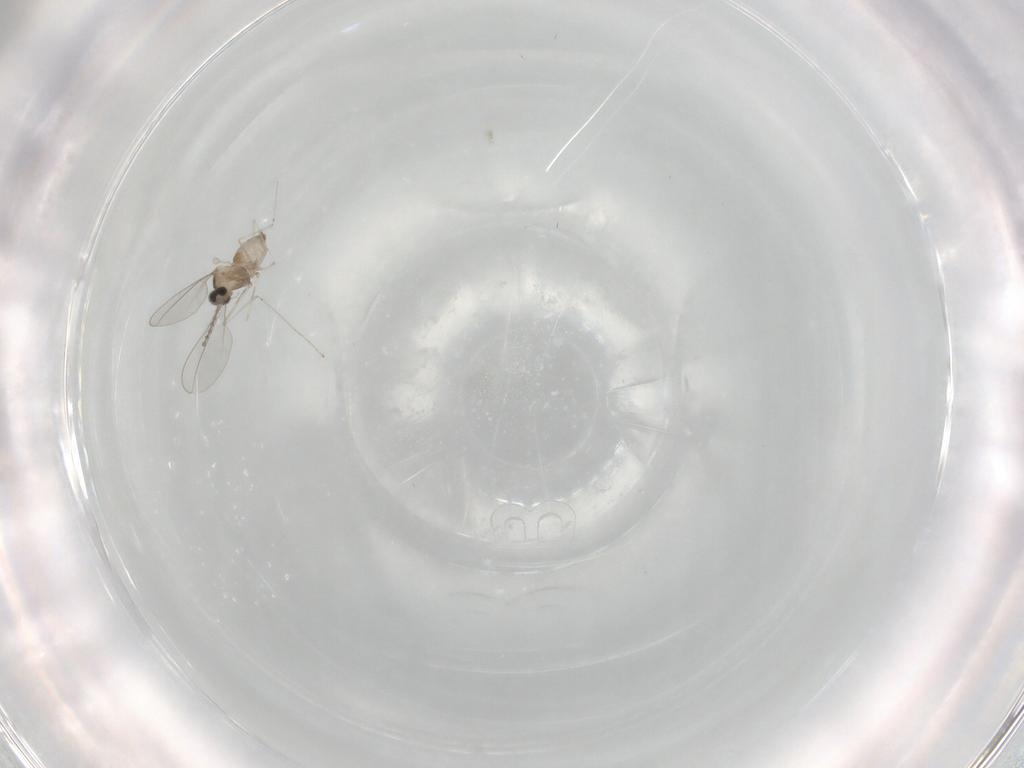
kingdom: Animalia
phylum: Arthropoda
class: Insecta
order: Diptera
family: Cecidomyiidae
